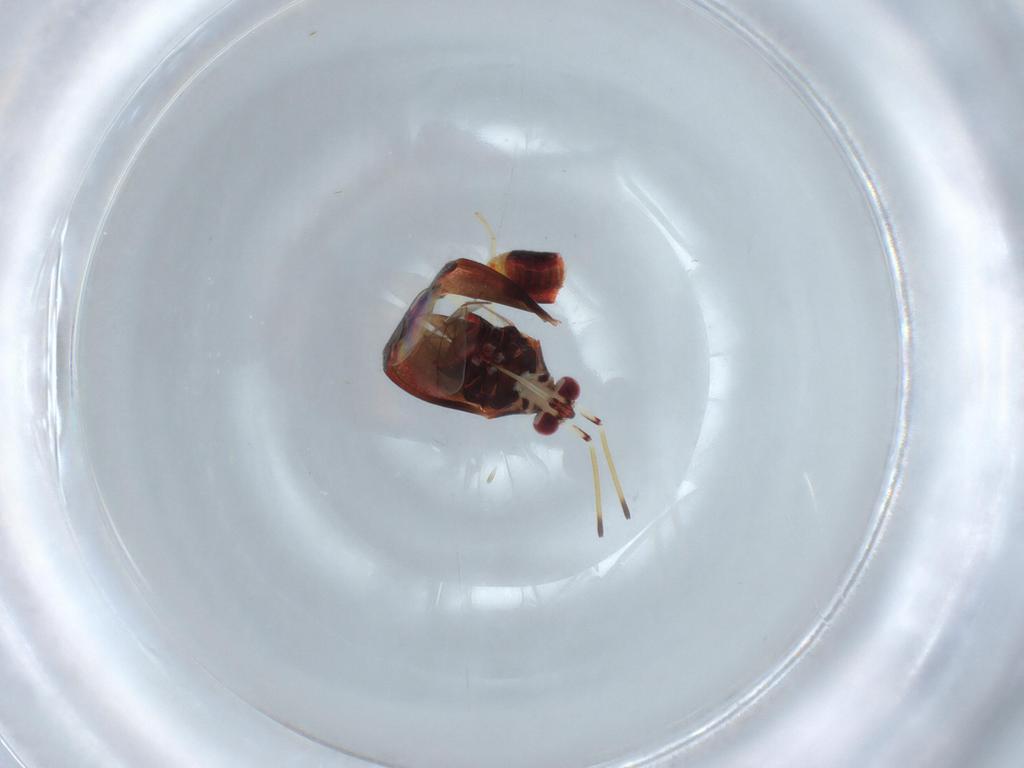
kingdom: Animalia
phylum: Arthropoda
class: Insecta
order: Hemiptera
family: Miridae
